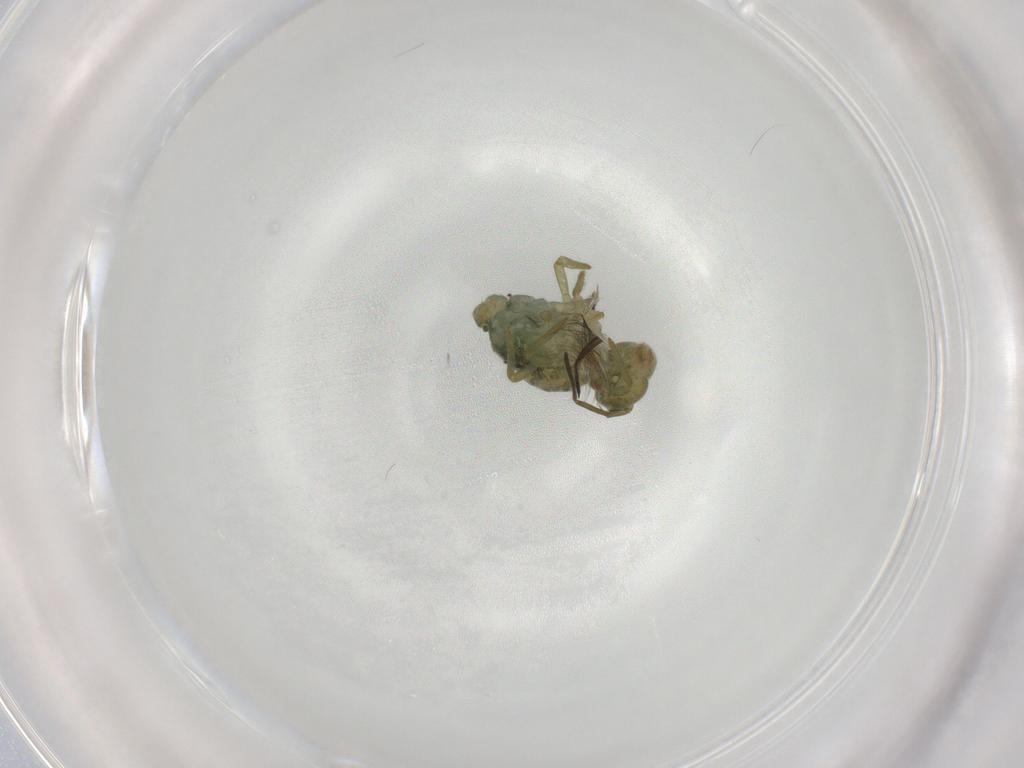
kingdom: Animalia
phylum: Arthropoda
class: Collembola
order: Symphypleona
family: Sminthuridae
